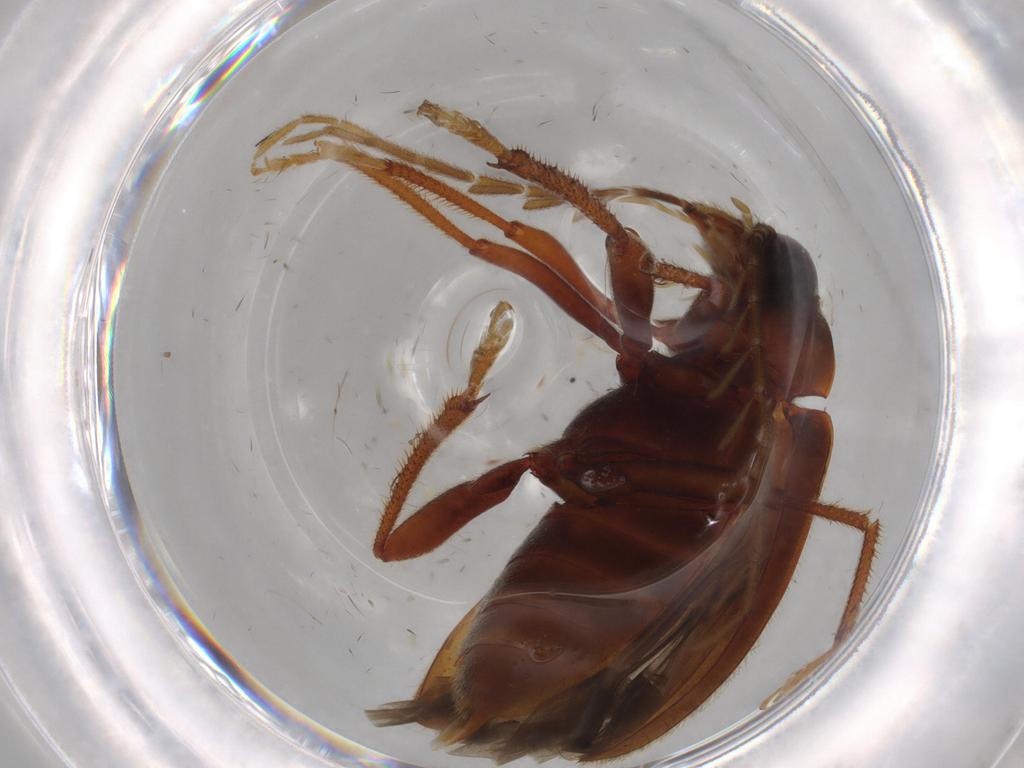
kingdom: Animalia
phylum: Arthropoda
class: Insecta
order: Coleoptera
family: Ptilodactylidae
